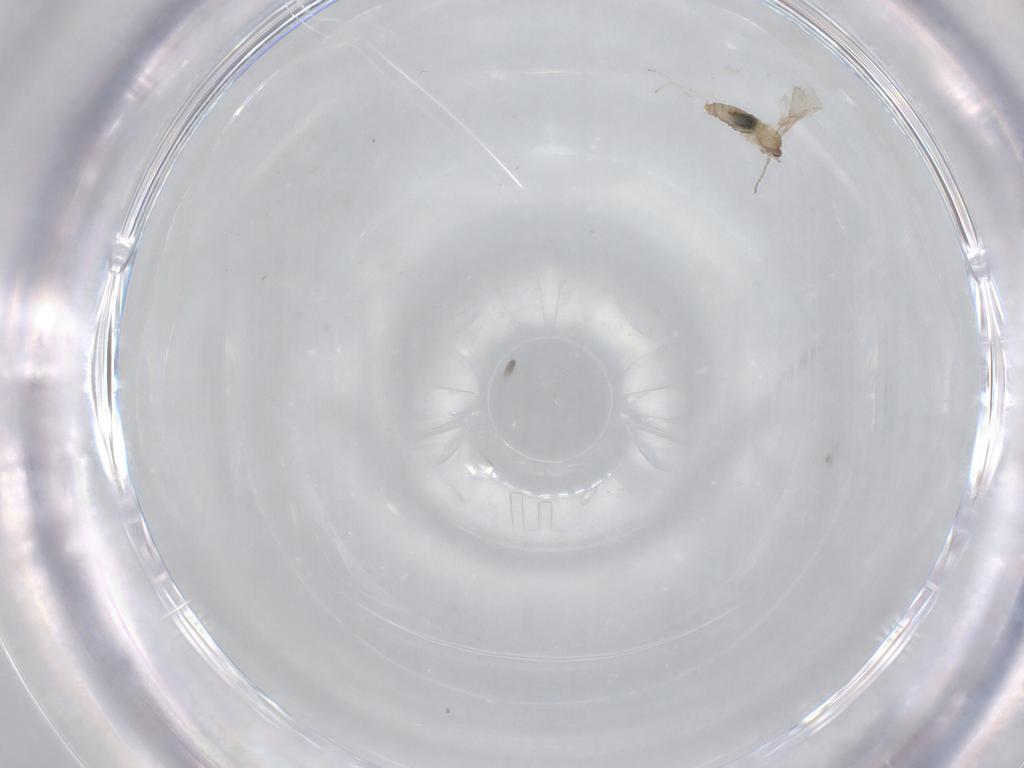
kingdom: Animalia
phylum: Arthropoda
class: Insecta
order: Diptera
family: Cecidomyiidae
